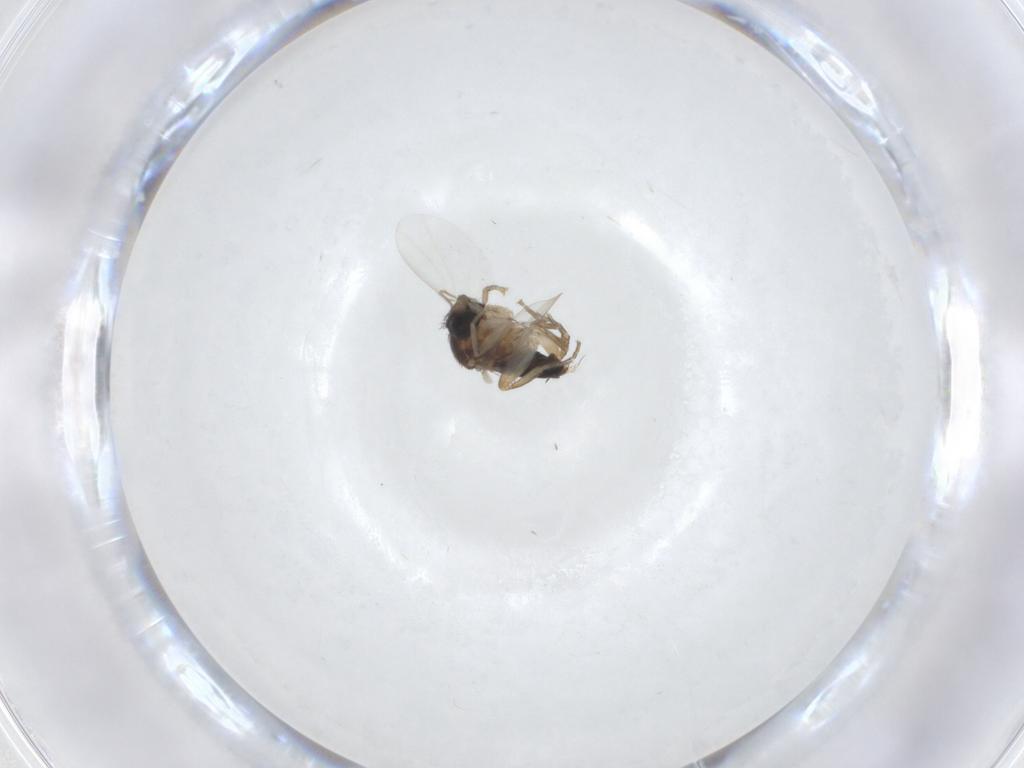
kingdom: Animalia
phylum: Arthropoda
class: Insecta
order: Diptera
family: Phoridae
